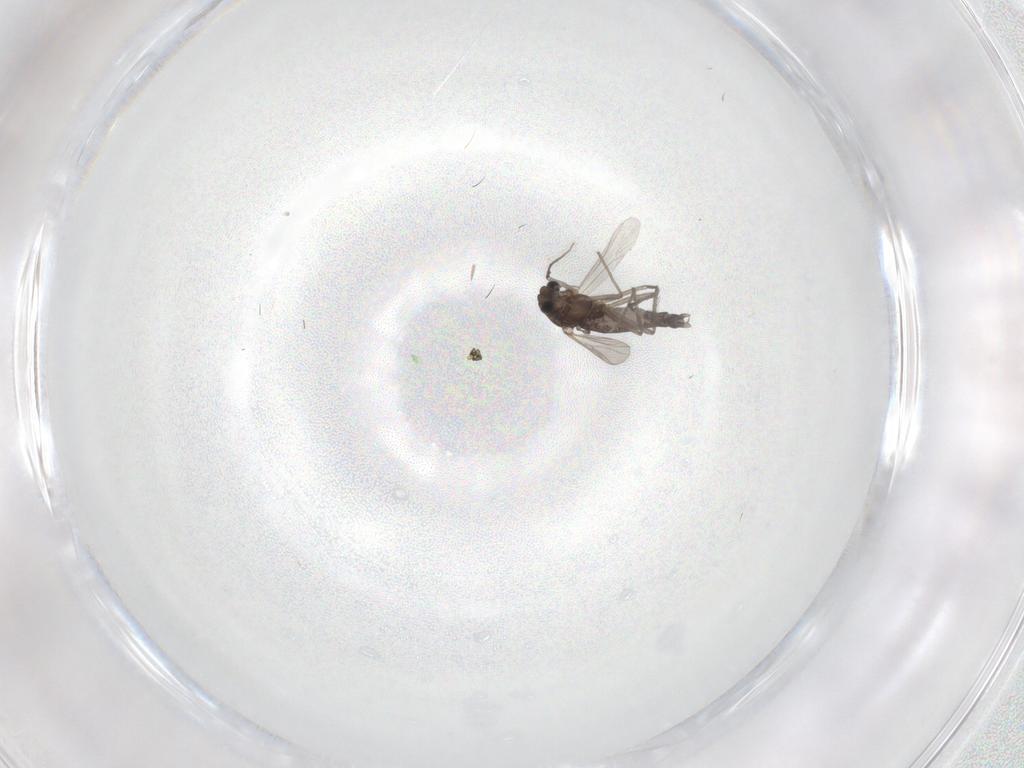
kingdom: Animalia
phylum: Arthropoda
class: Insecta
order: Diptera
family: Chironomidae
